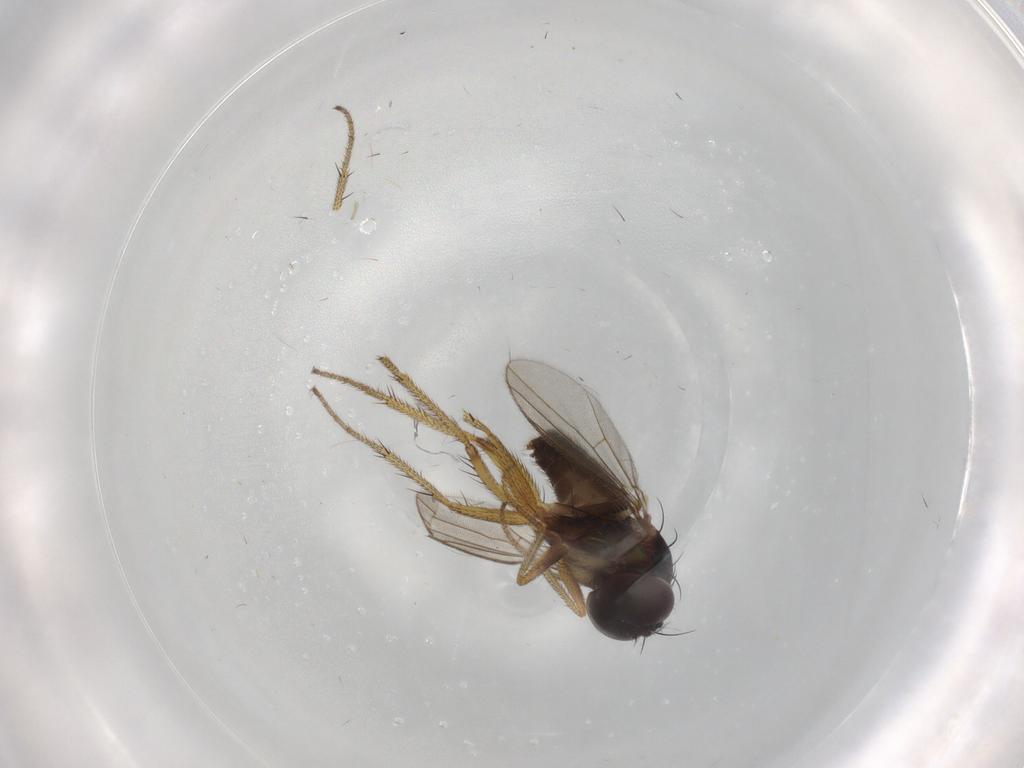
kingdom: Animalia
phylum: Arthropoda
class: Insecta
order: Diptera
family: Dolichopodidae
